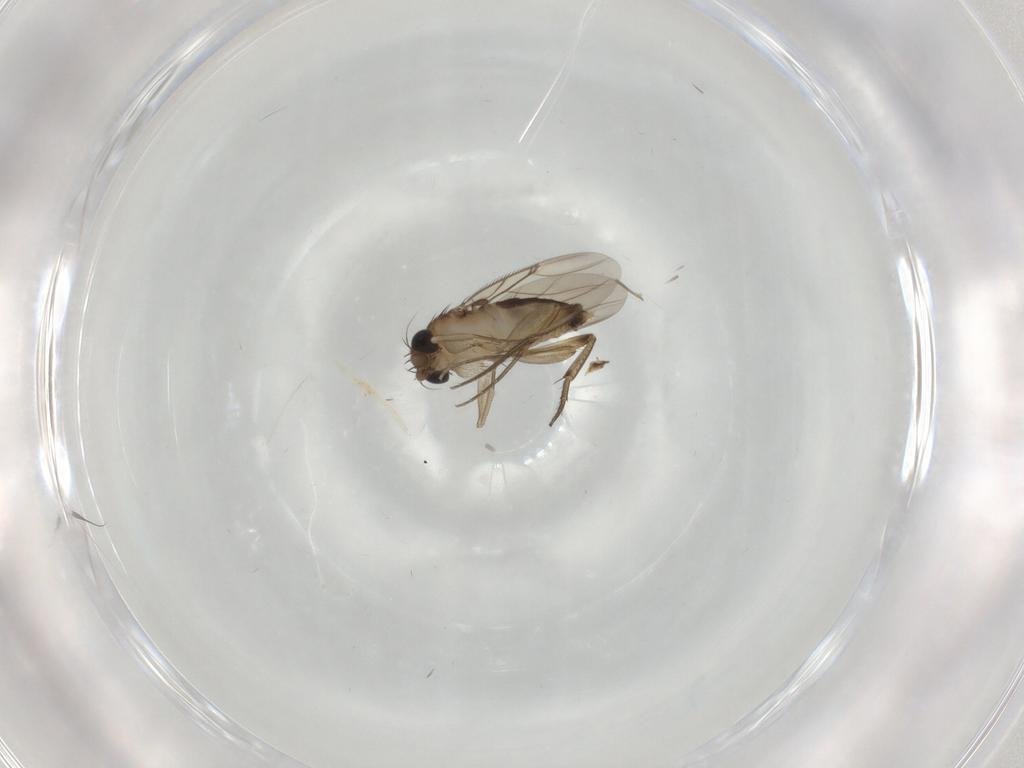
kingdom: Animalia
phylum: Arthropoda
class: Insecta
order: Diptera
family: Phoridae
